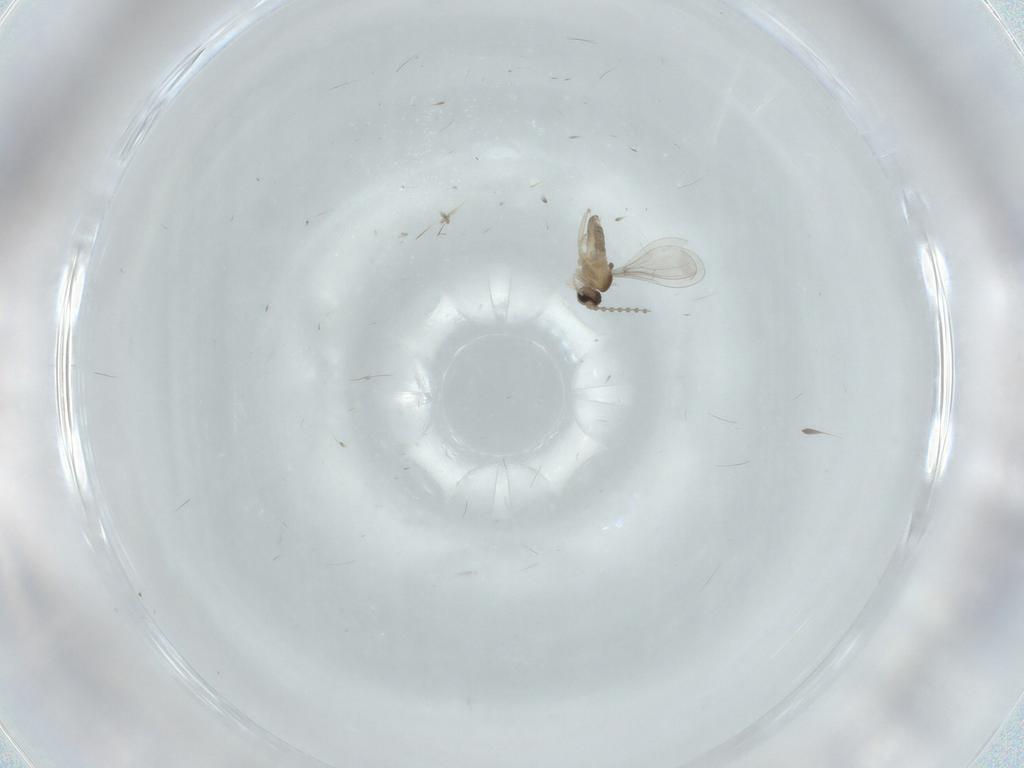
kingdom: Animalia
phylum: Arthropoda
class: Insecta
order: Diptera
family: Cecidomyiidae
